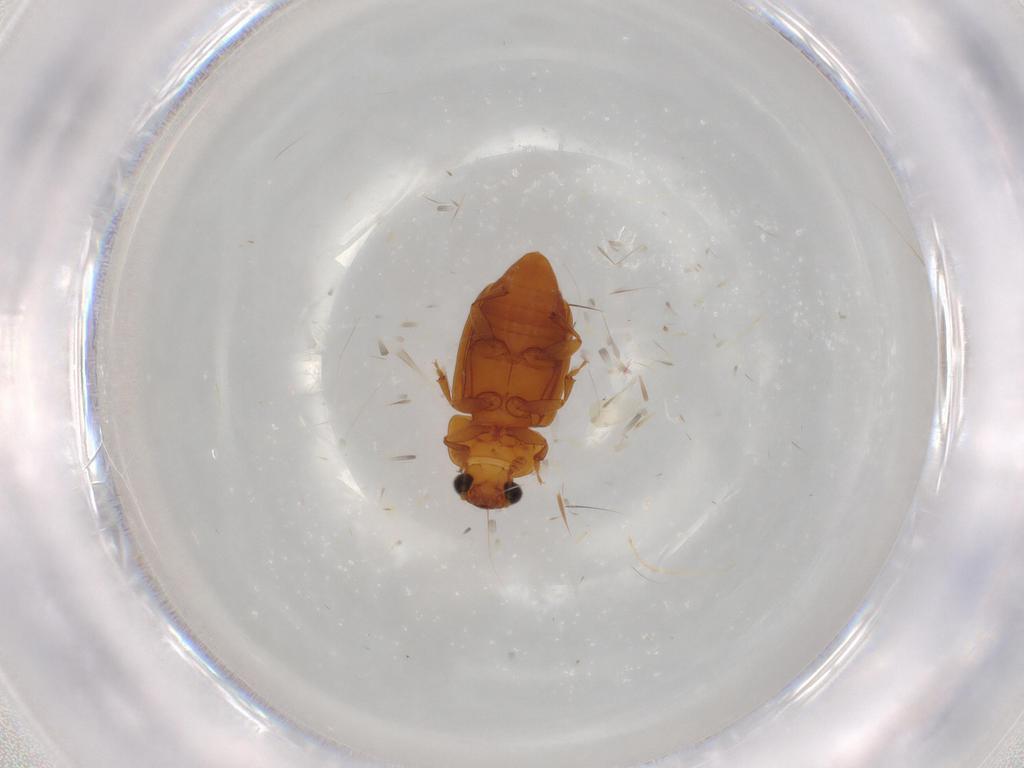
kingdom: Animalia
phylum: Arthropoda
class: Insecta
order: Coleoptera
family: Nitidulidae
